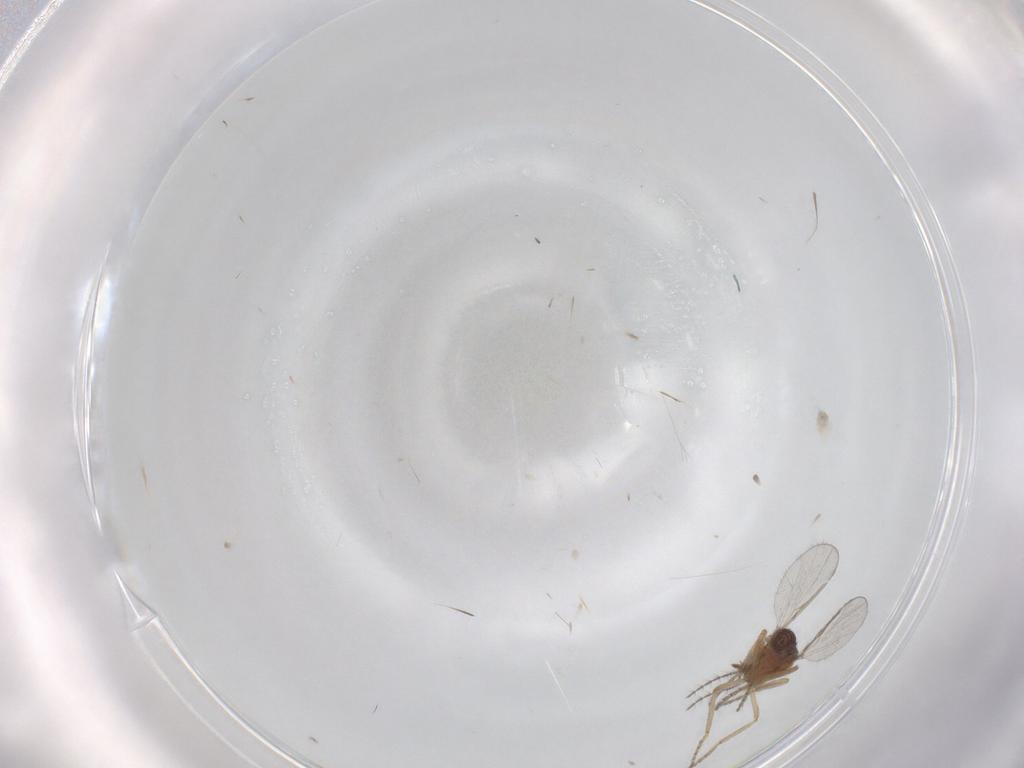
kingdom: Animalia
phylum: Arthropoda
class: Insecta
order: Diptera
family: Ceratopogonidae
